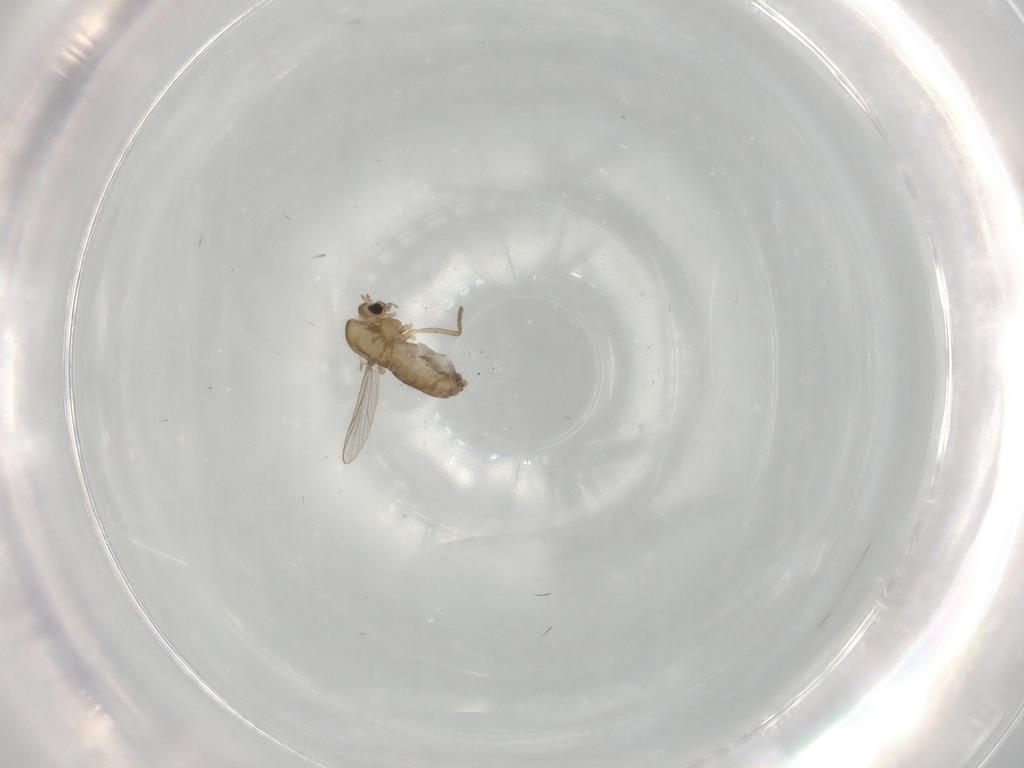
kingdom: Animalia
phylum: Arthropoda
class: Insecta
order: Diptera
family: Chironomidae
